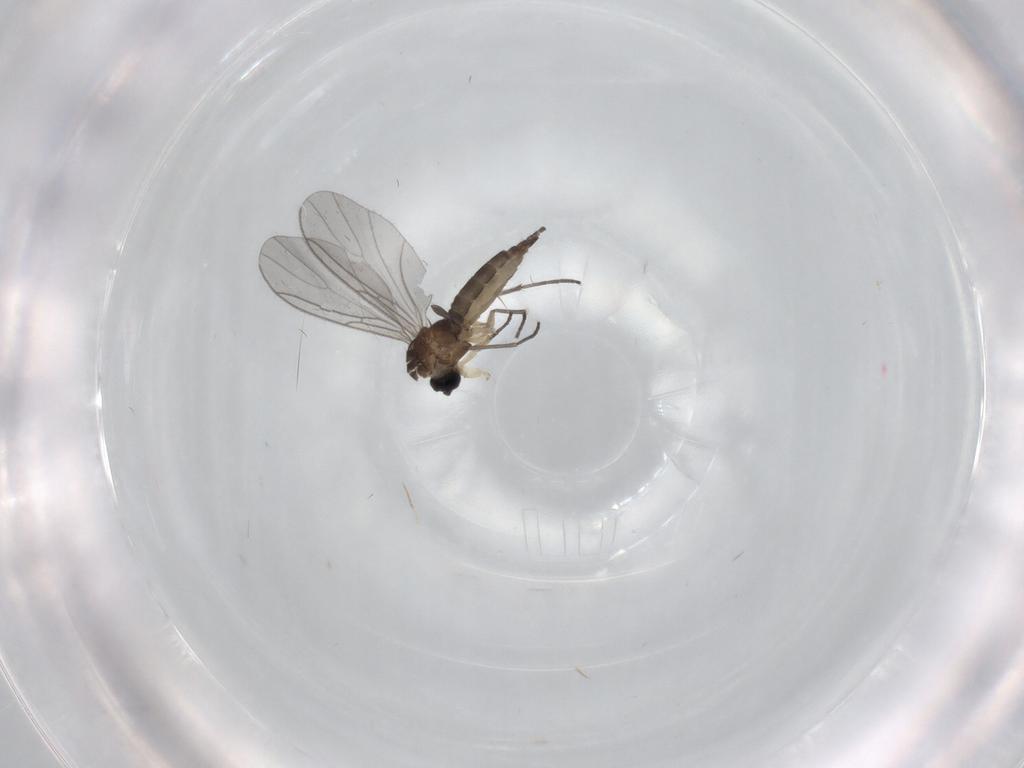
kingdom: Animalia
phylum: Arthropoda
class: Insecta
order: Diptera
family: Sciaridae
